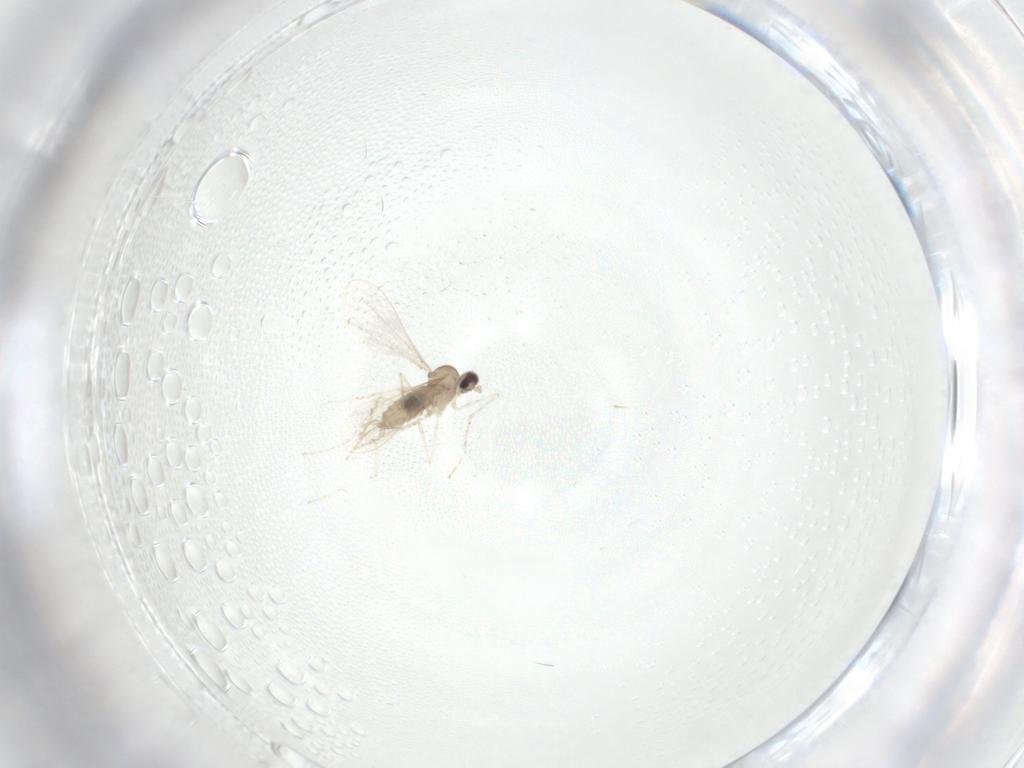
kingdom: Animalia
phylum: Arthropoda
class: Insecta
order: Diptera
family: Cecidomyiidae
